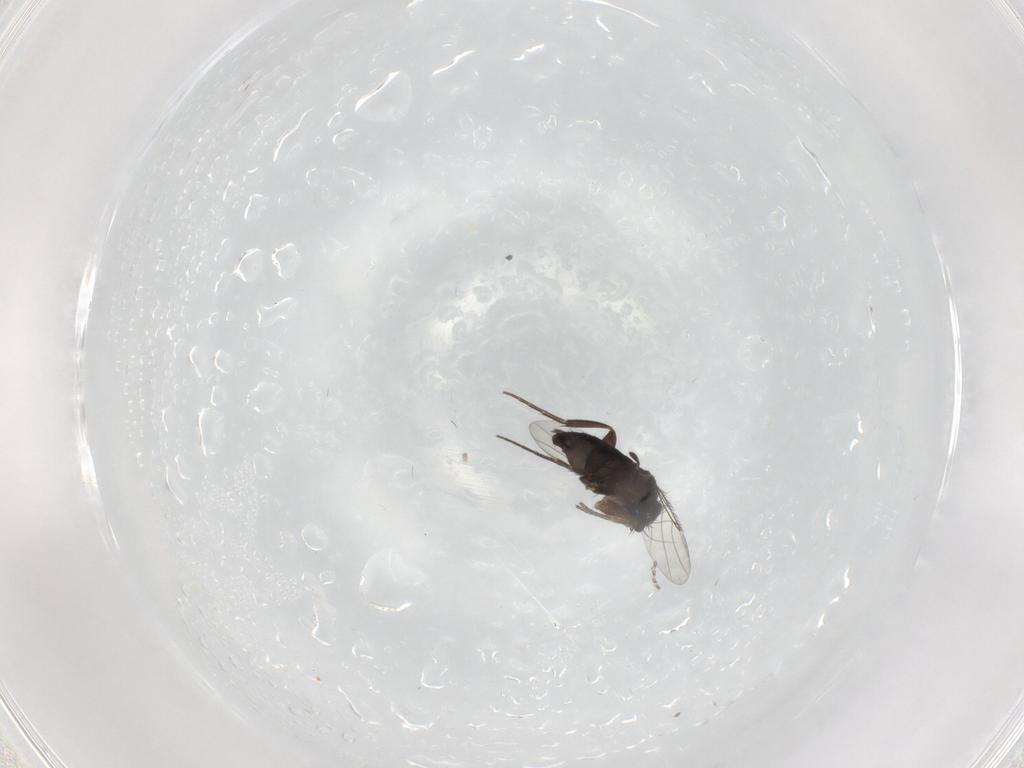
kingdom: Animalia
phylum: Arthropoda
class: Insecta
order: Diptera
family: Phoridae
